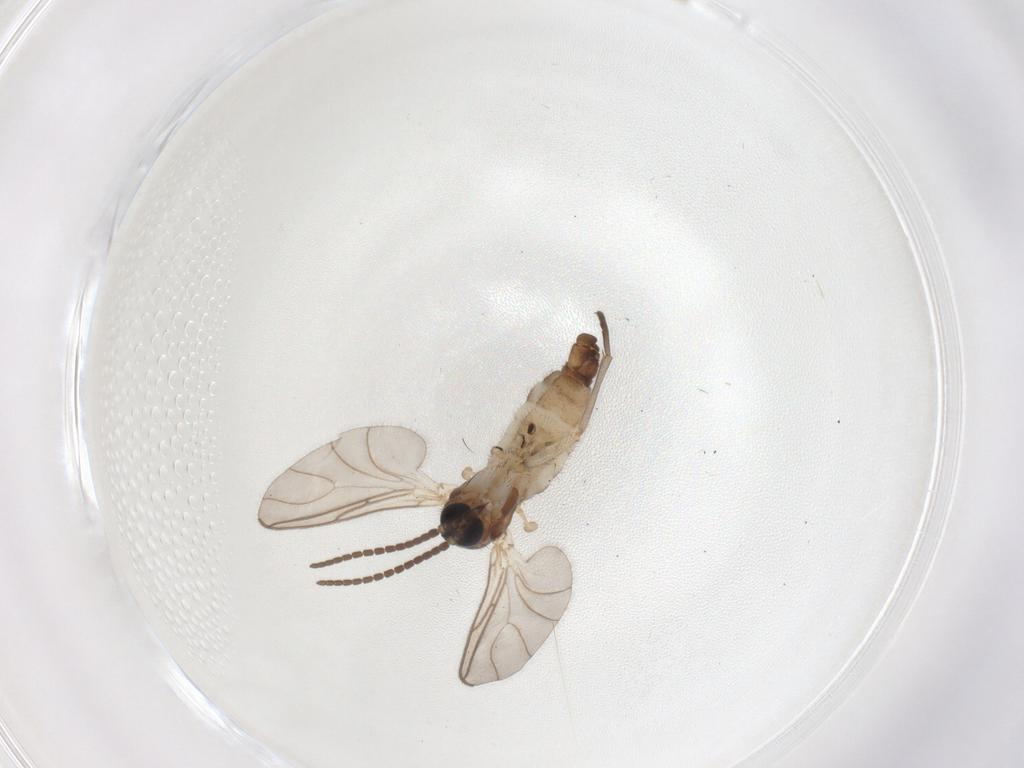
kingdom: Animalia
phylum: Arthropoda
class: Insecta
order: Diptera
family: Sciaridae
